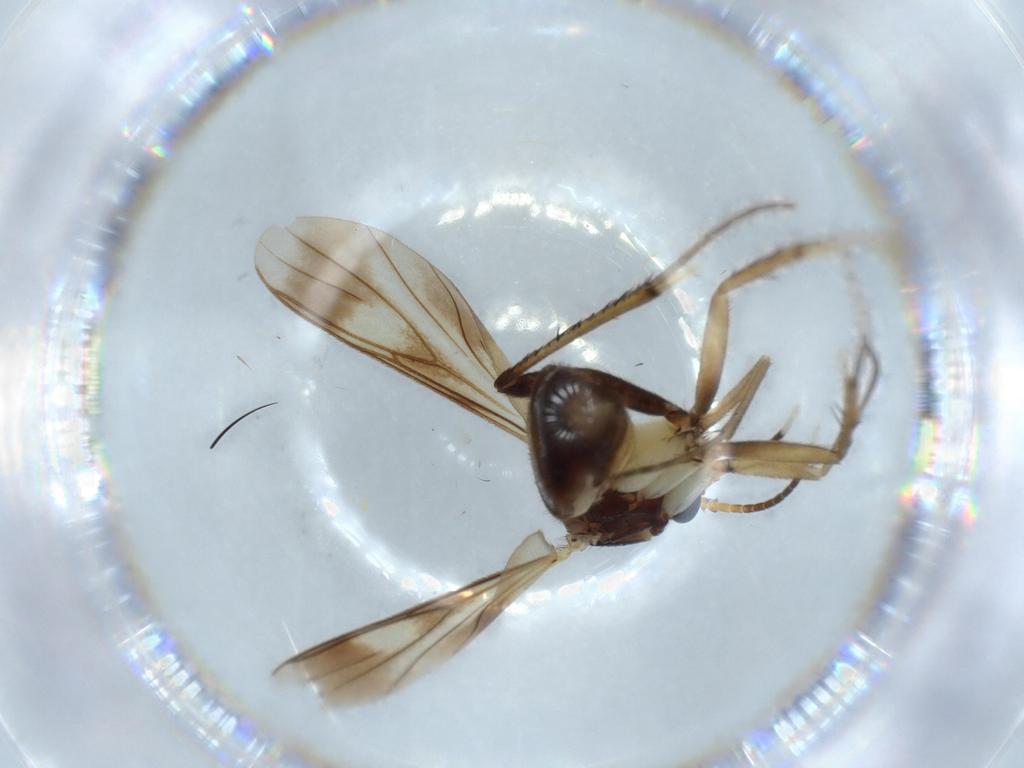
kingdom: Animalia
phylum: Arthropoda
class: Insecta
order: Diptera
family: Mycetophilidae
